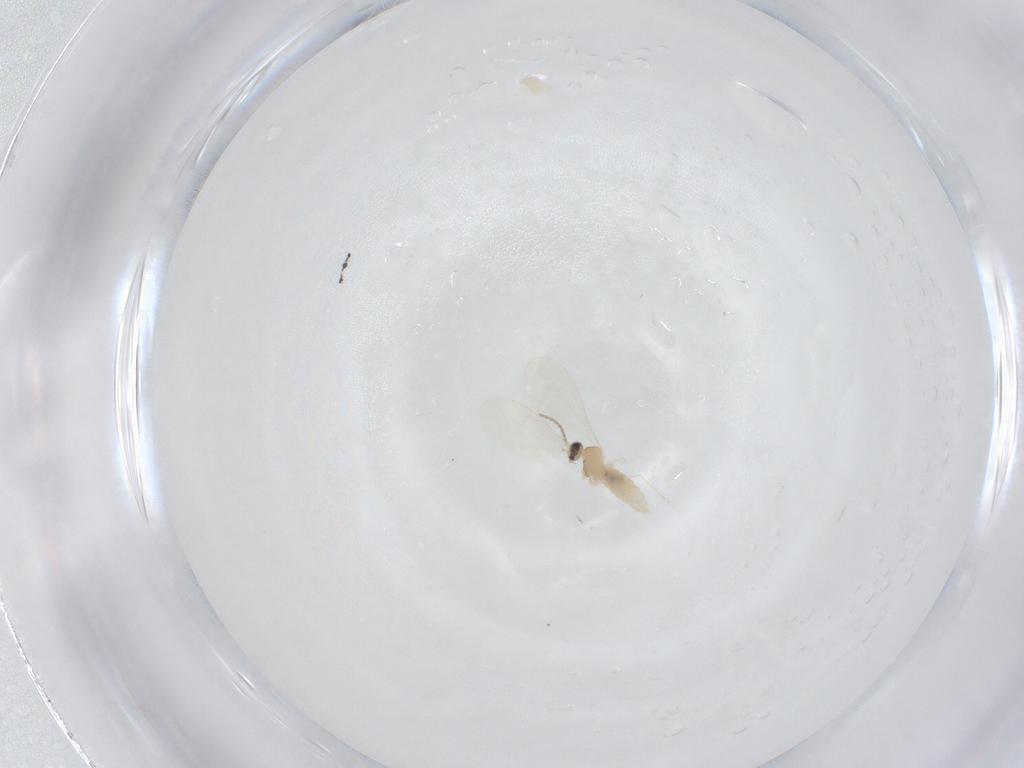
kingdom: Animalia
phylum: Arthropoda
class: Insecta
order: Diptera
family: Cecidomyiidae
